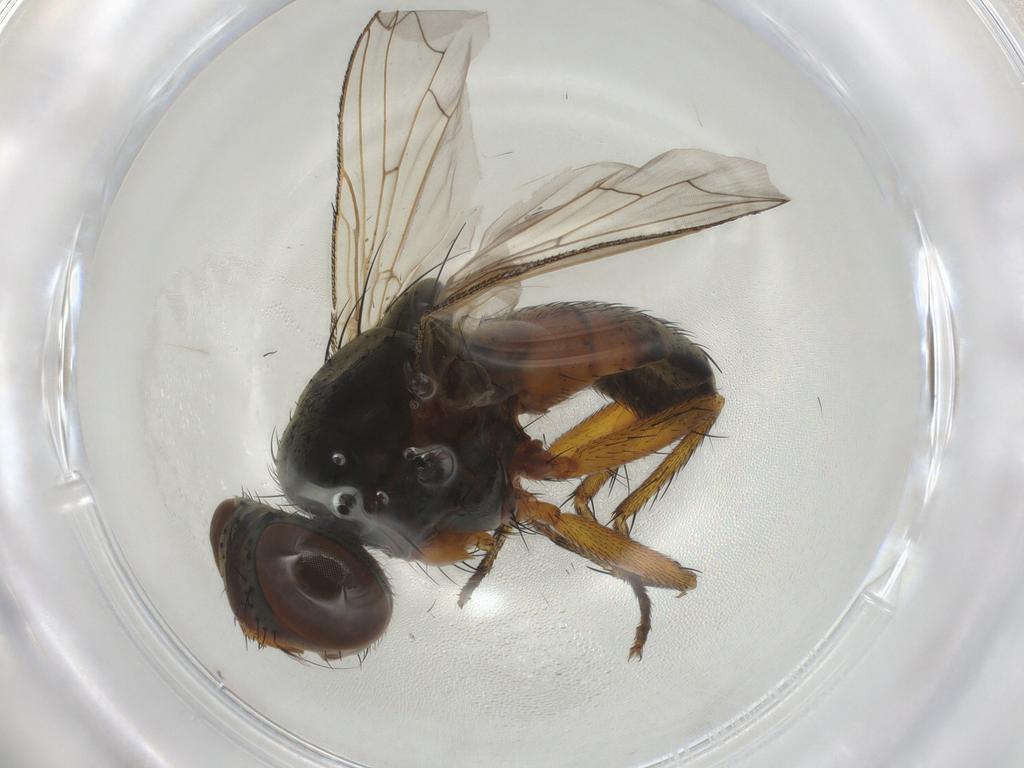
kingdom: Animalia
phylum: Arthropoda
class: Insecta
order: Diptera
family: Sarcophagidae
